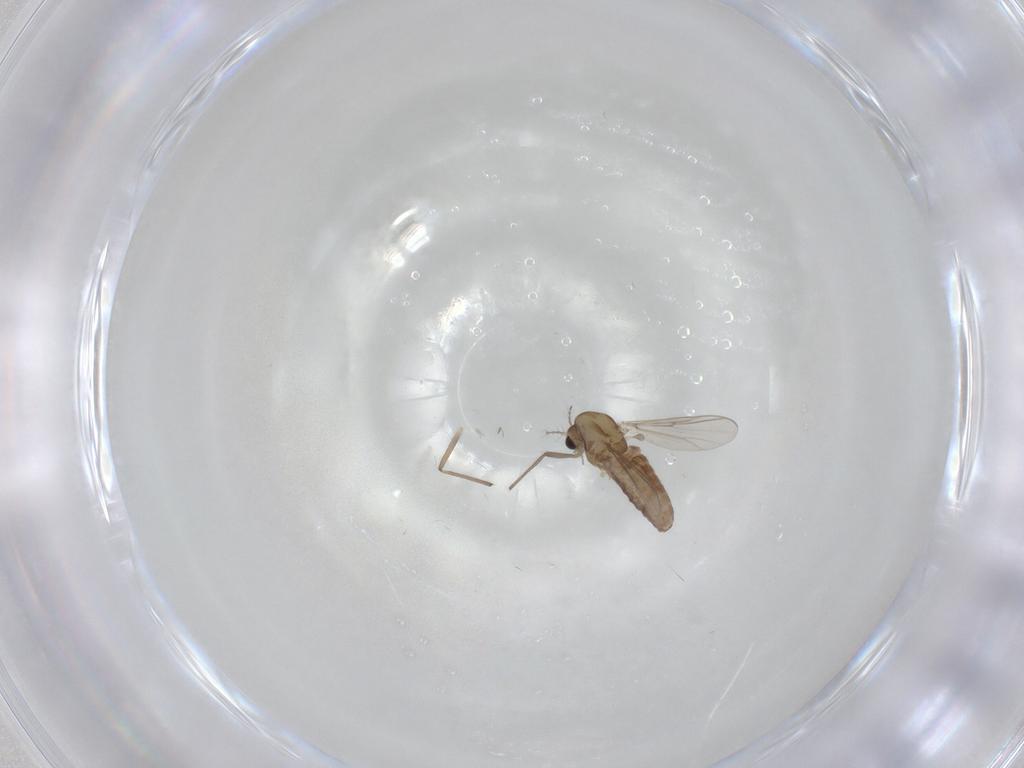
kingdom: Animalia
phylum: Arthropoda
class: Insecta
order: Diptera
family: Chironomidae
